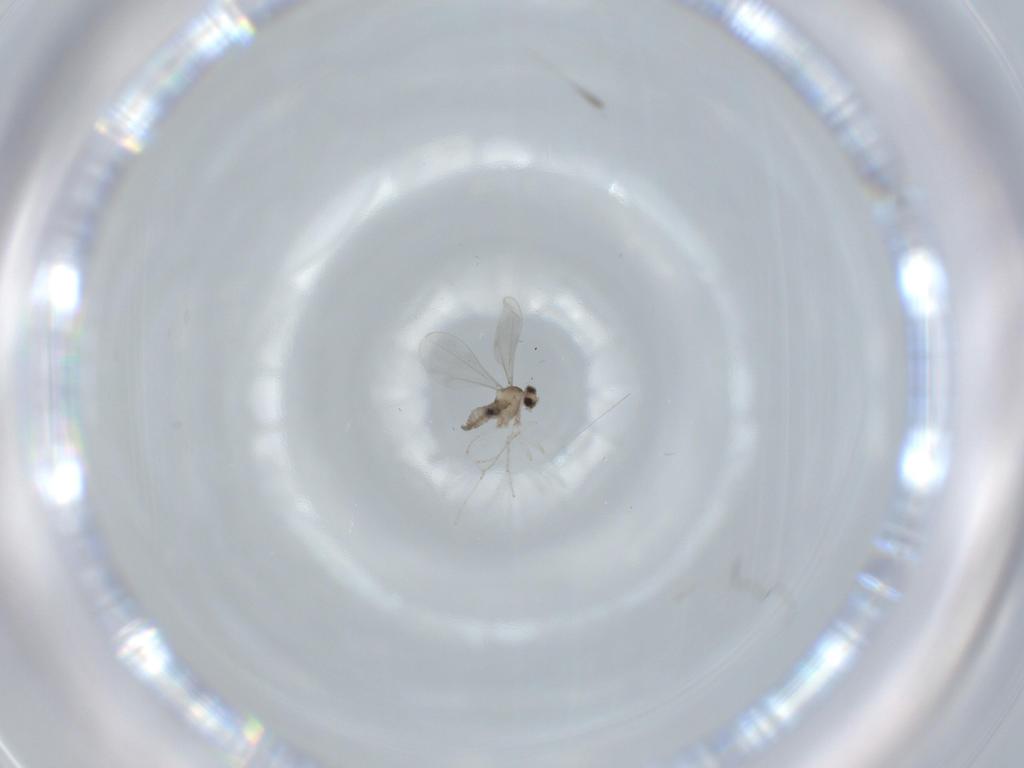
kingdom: Animalia
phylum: Arthropoda
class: Insecta
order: Diptera
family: Cecidomyiidae
